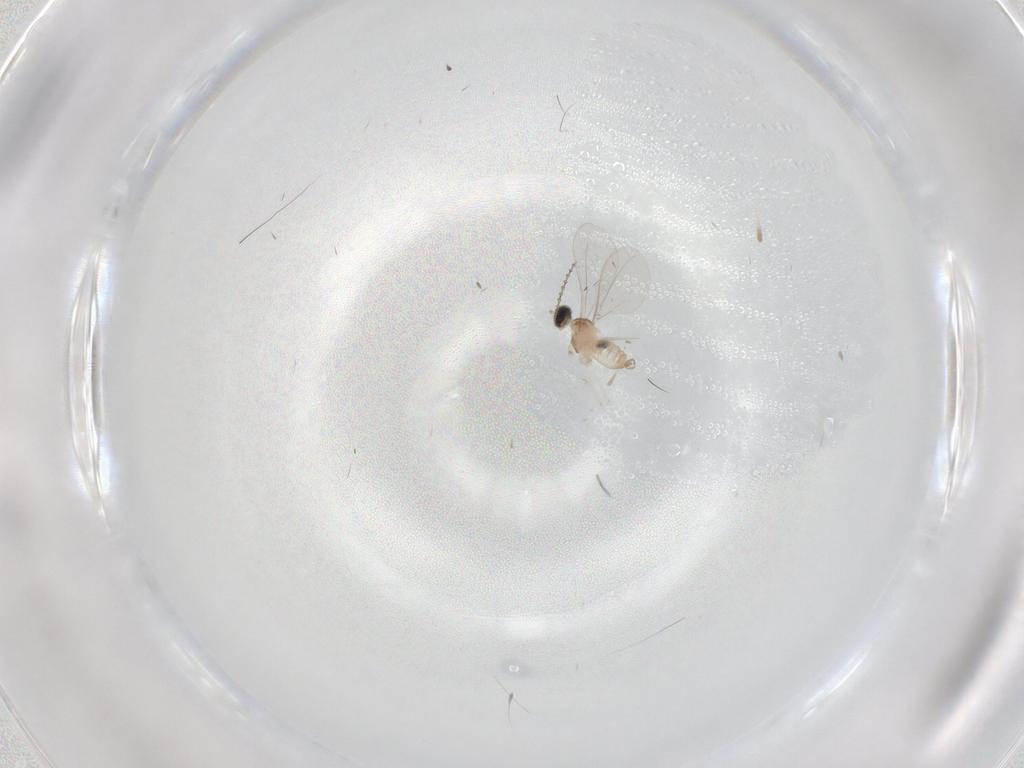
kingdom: Animalia
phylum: Arthropoda
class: Insecta
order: Diptera
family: Cecidomyiidae
